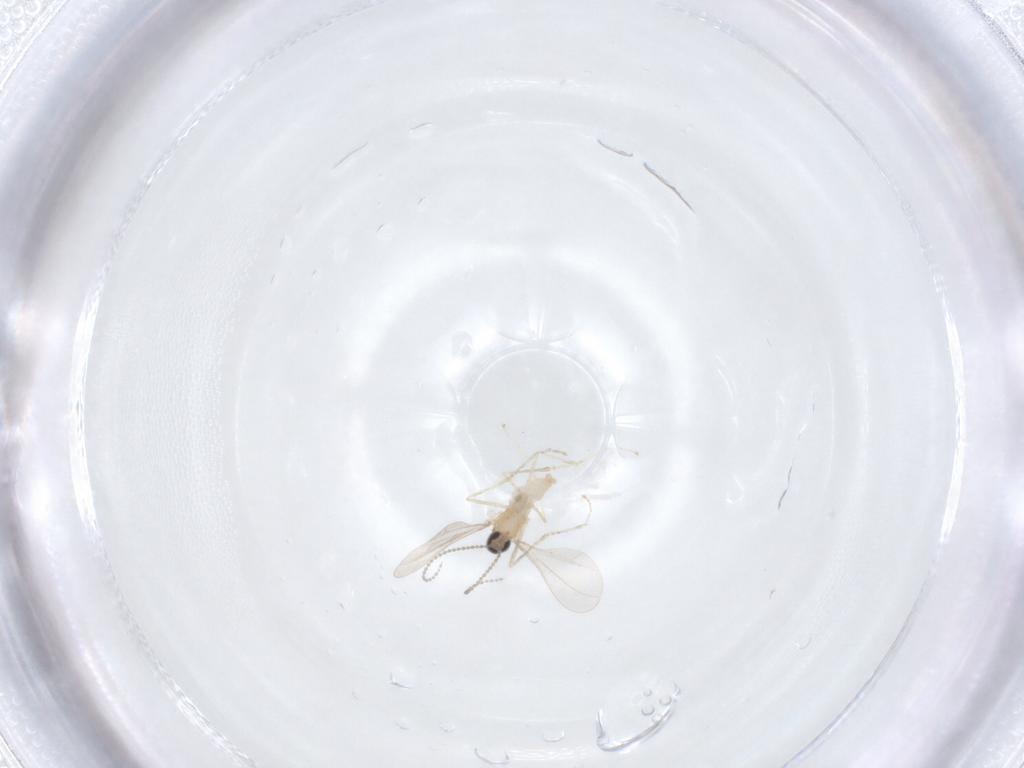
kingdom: Animalia
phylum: Arthropoda
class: Insecta
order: Diptera
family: Cecidomyiidae
